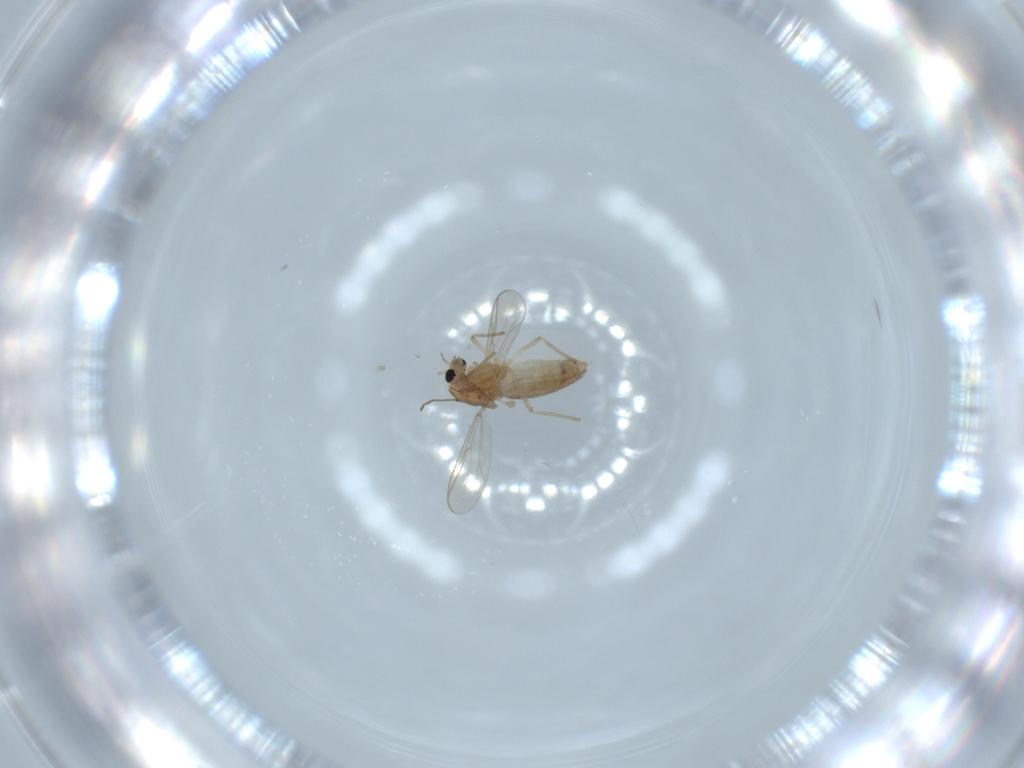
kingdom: Animalia
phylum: Arthropoda
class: Insecta
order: Diptera
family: Chironomidae
